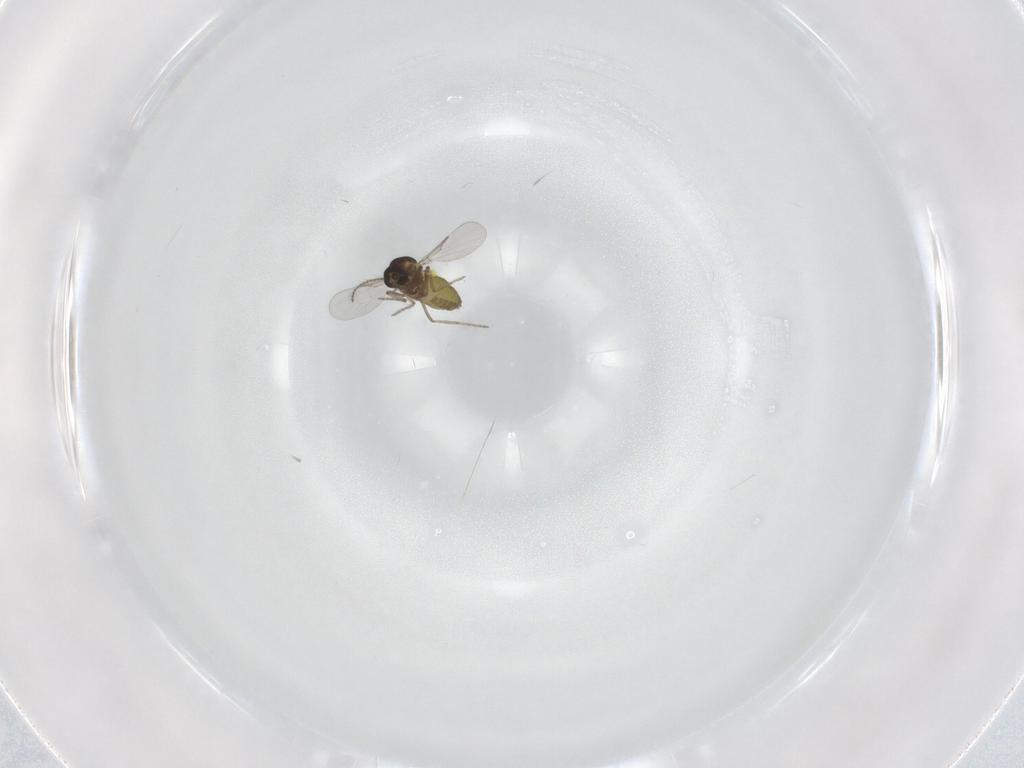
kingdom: Animalia
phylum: Arthropoda
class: Insecta
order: Diptera
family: Ceratopogonidae
